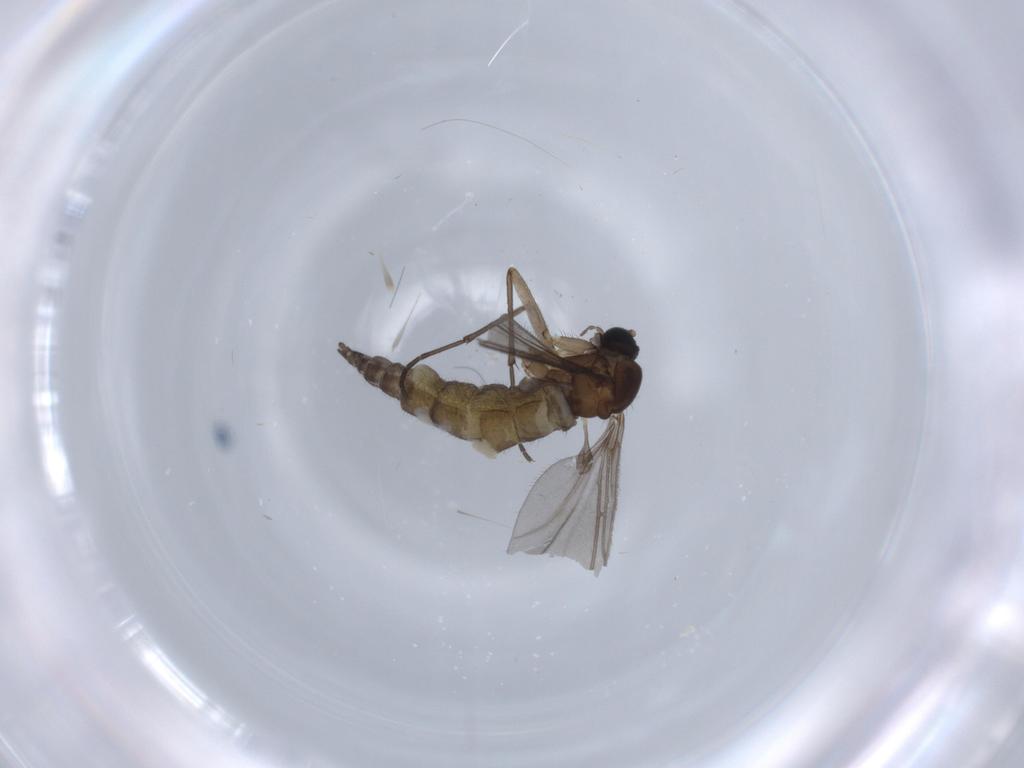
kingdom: Animalia
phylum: Arthropoda
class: Insecta
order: Diptera
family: Sciaridae
